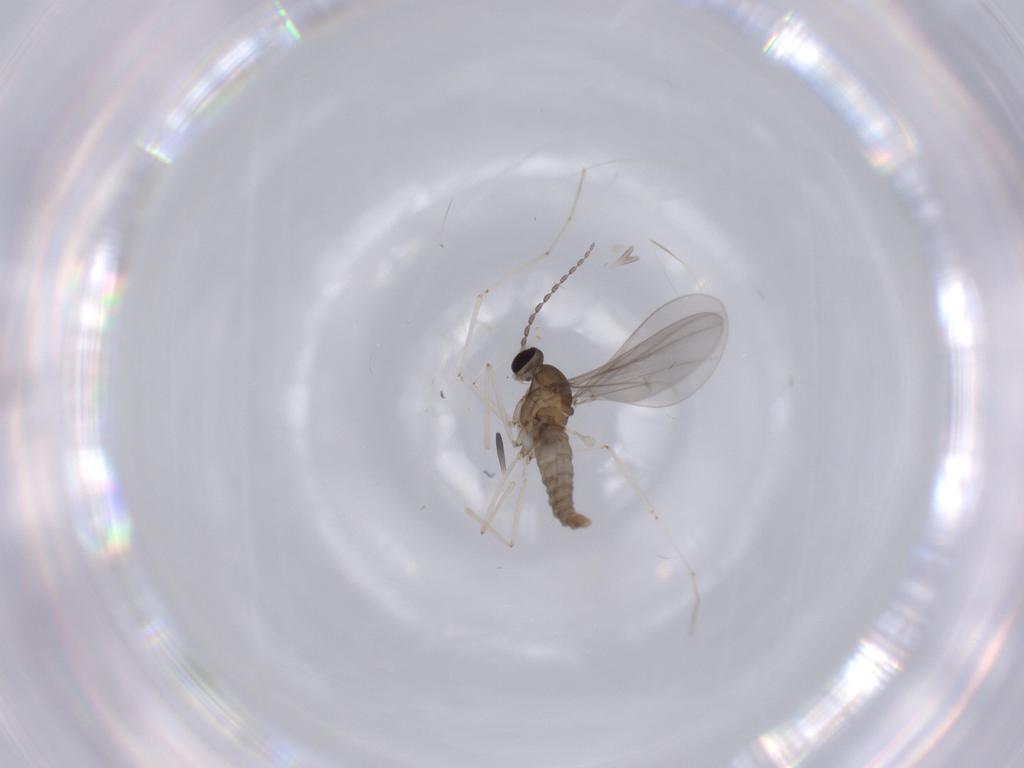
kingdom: Animalia
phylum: Arthropoda
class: Insecta
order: Diptera
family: Cecidomyiidae
